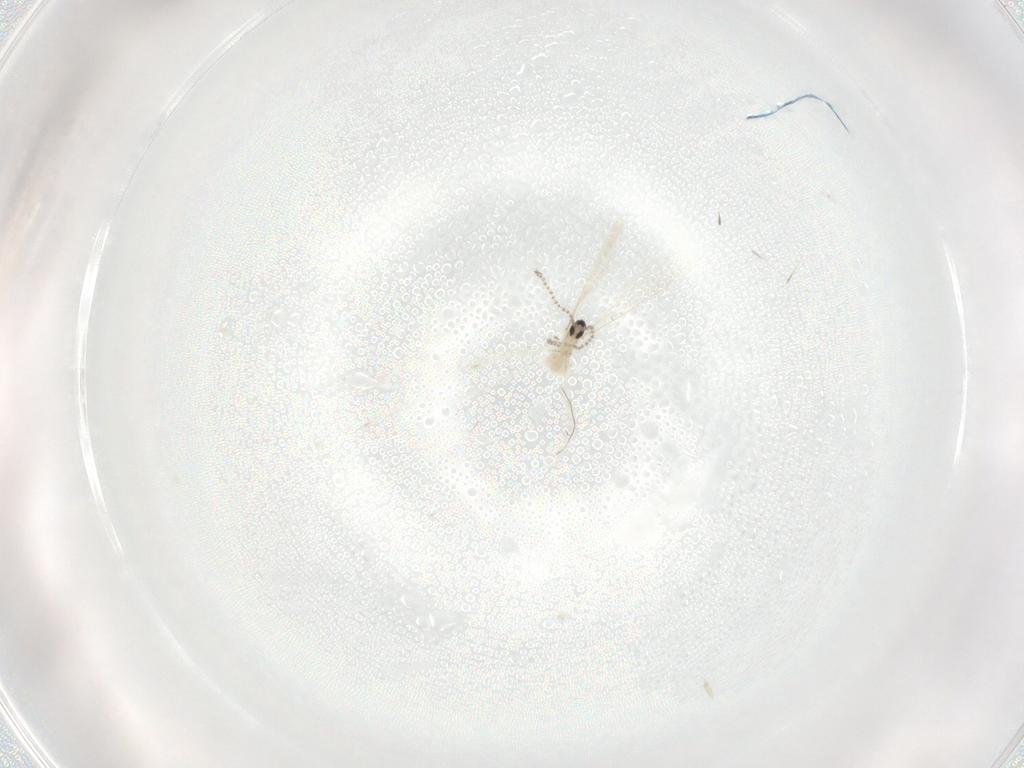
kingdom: Animalia
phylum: Arthropoda
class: Insecta
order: Diptera
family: Cecidomyiidae
